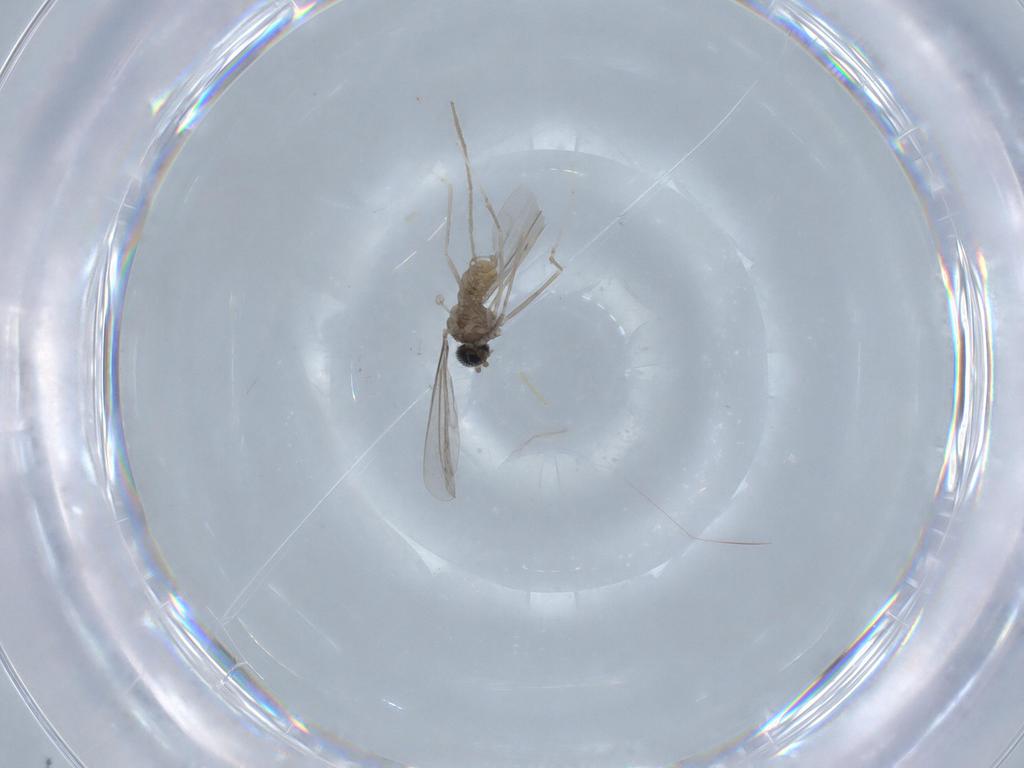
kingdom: Animalia
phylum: Arthropoda
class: Insecta
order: Diptera
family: Cecidomyiidae
